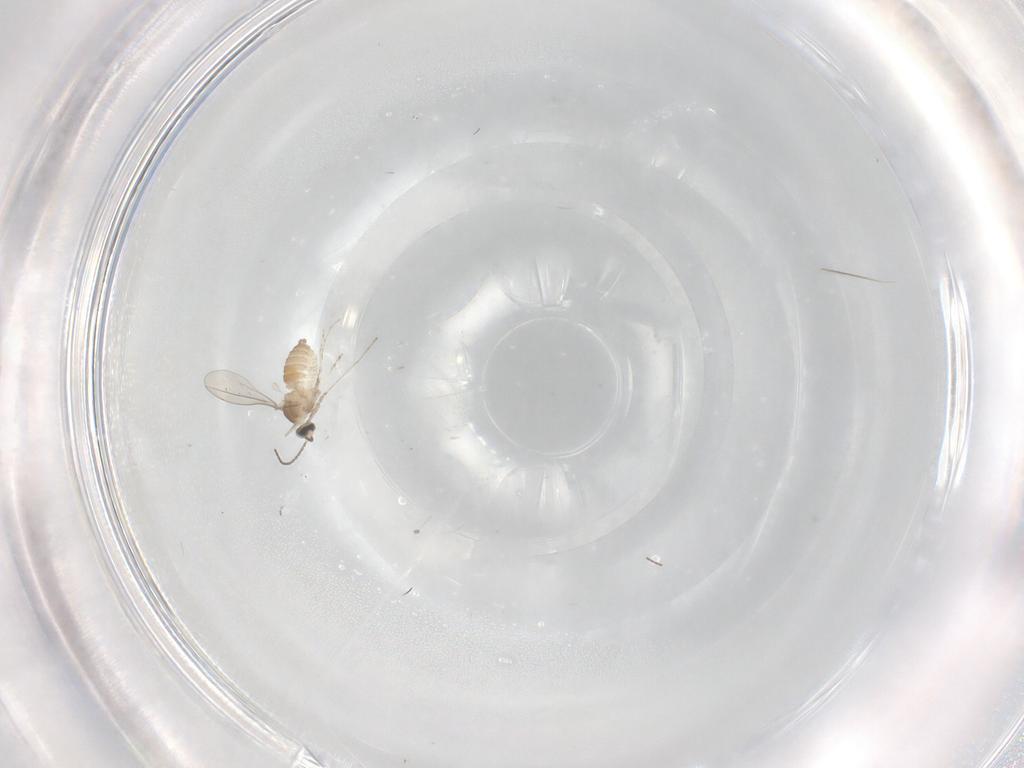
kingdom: Animalia
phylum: Arthropoda
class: Insecta
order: Diptera
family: Cecidomyiidae
